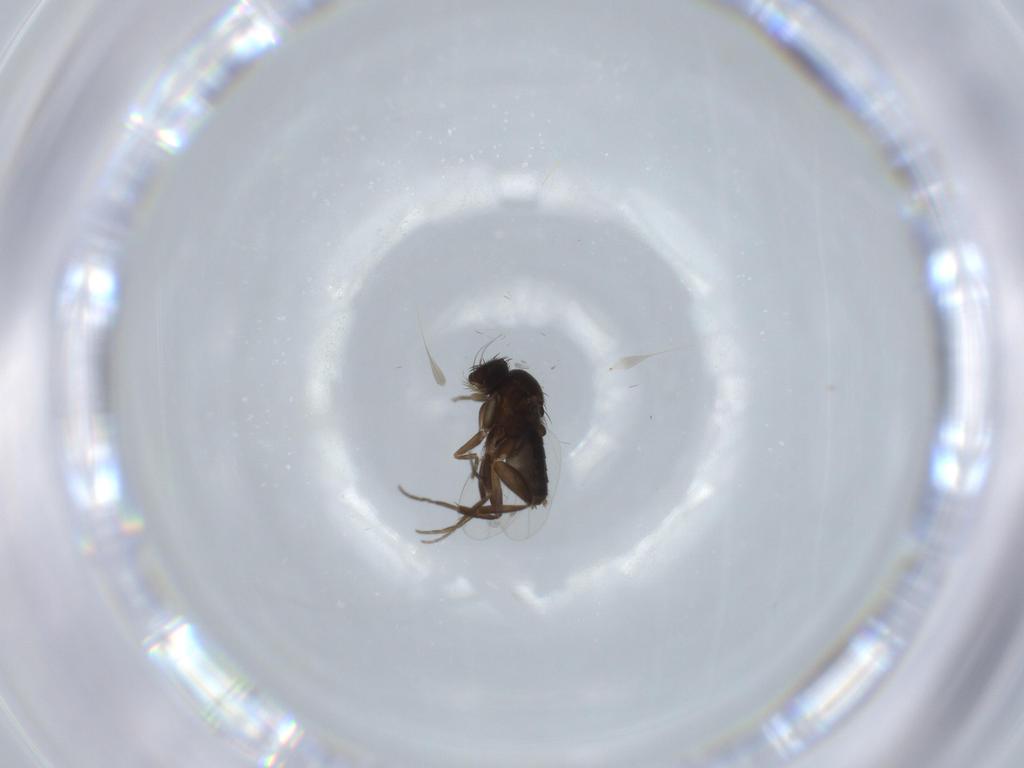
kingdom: Animalia
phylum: Arthropoda
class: Insecta
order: Diptera
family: Phoridae
